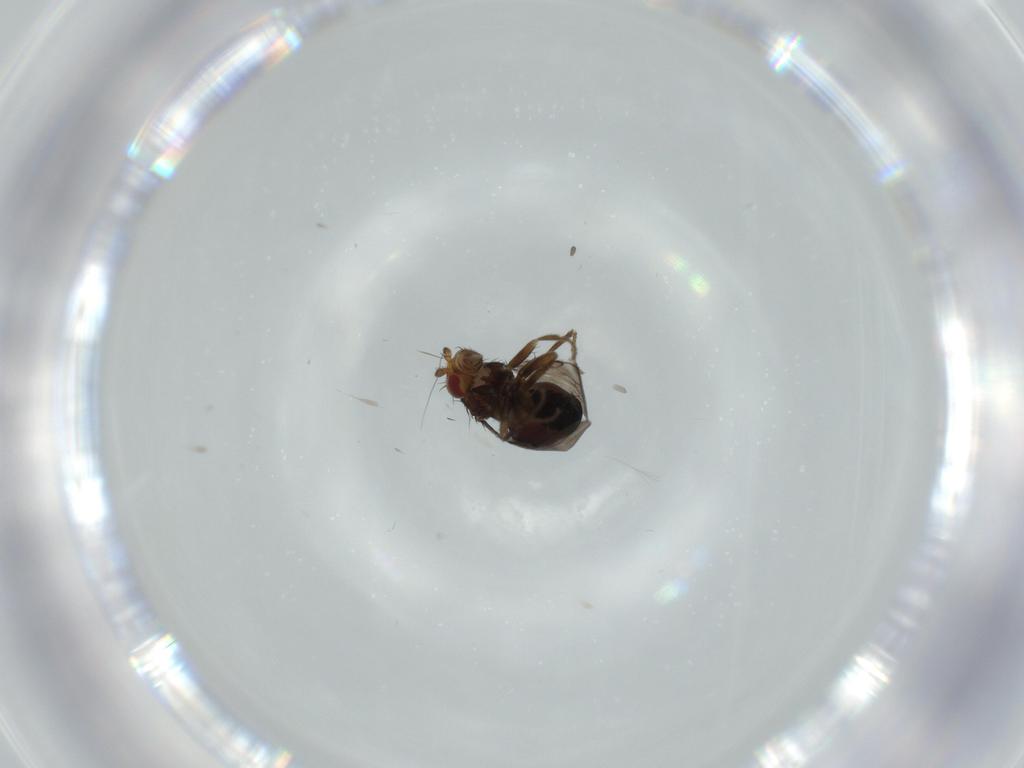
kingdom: Animalia
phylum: Arthropoda
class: Insecta
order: Diptera
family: Cecidomyiidae
